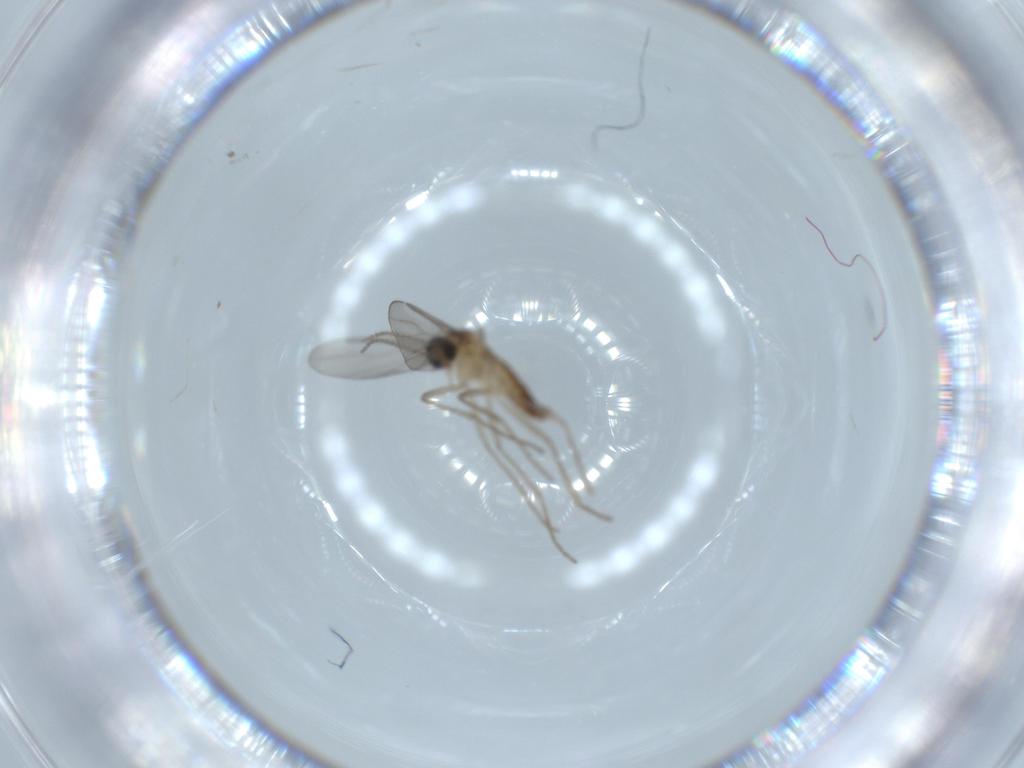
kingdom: Animalia
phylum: Arthropoda
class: Insecta
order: Diptera
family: Cecidomyiidae
